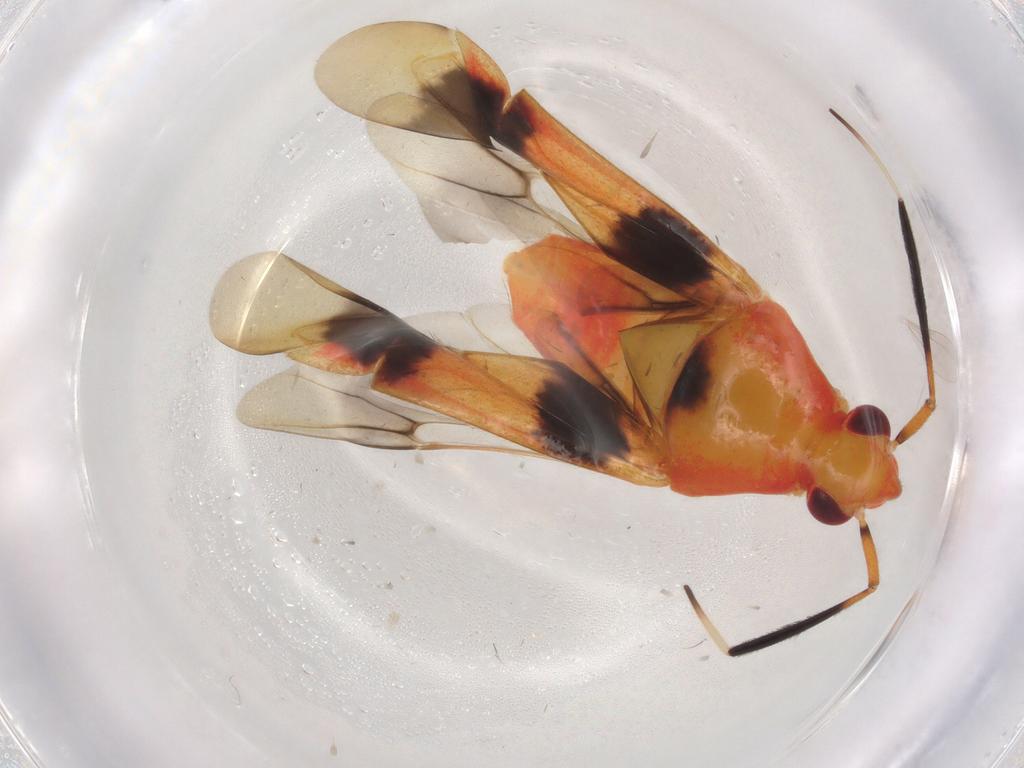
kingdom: Animalia
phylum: Arthropoda
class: Insecta
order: Hemiptera
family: Miridae
